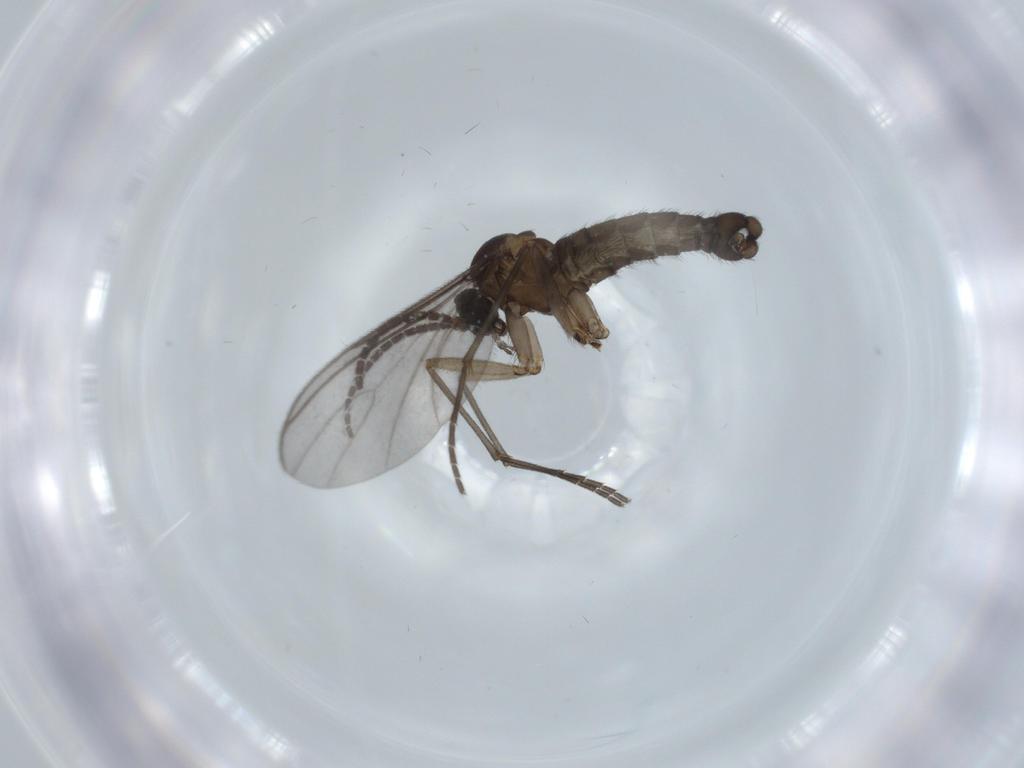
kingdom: Animalia
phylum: Arthropoda
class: Insecta
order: Diptera
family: Sciaridae
